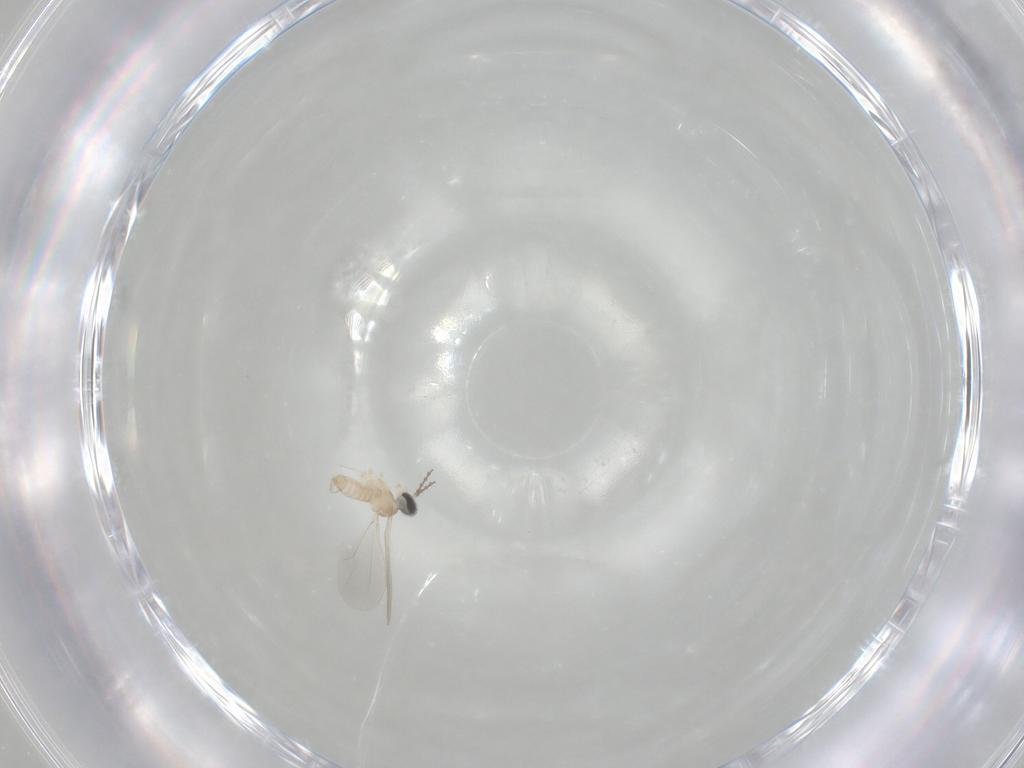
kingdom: Animalia
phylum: Arthropoda
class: Insecta
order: Diptera
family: Cecidomyiidae
